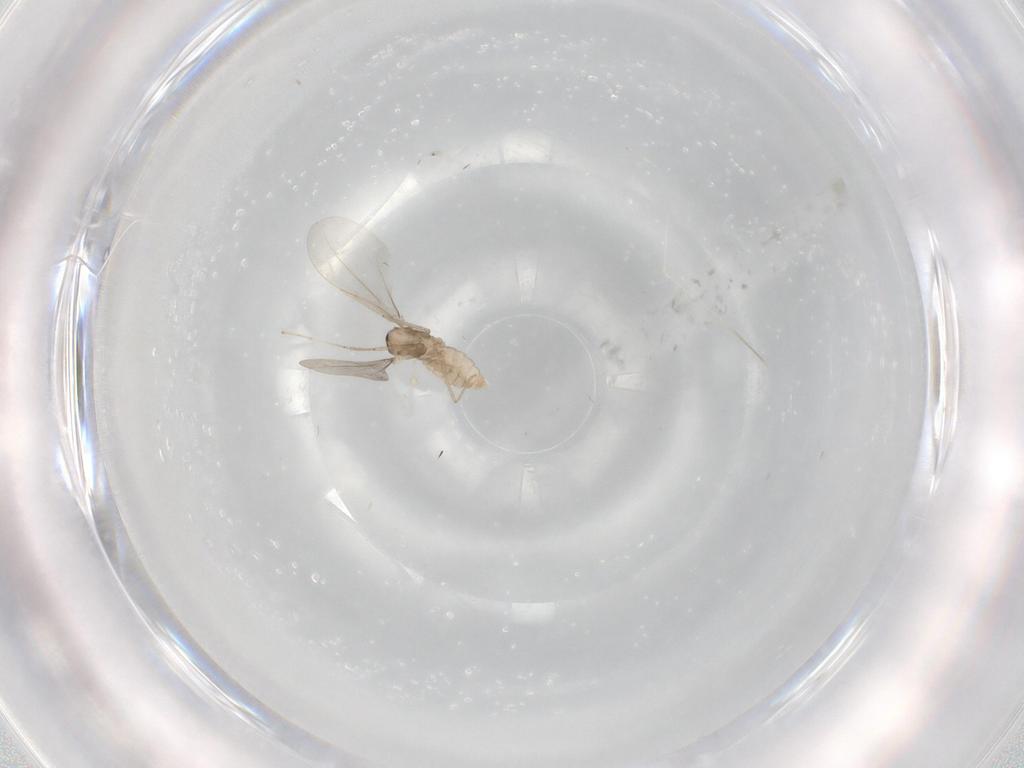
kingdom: Animalia
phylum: Arthropoda
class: Insecta
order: Diptera
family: Cecidomyiidae
